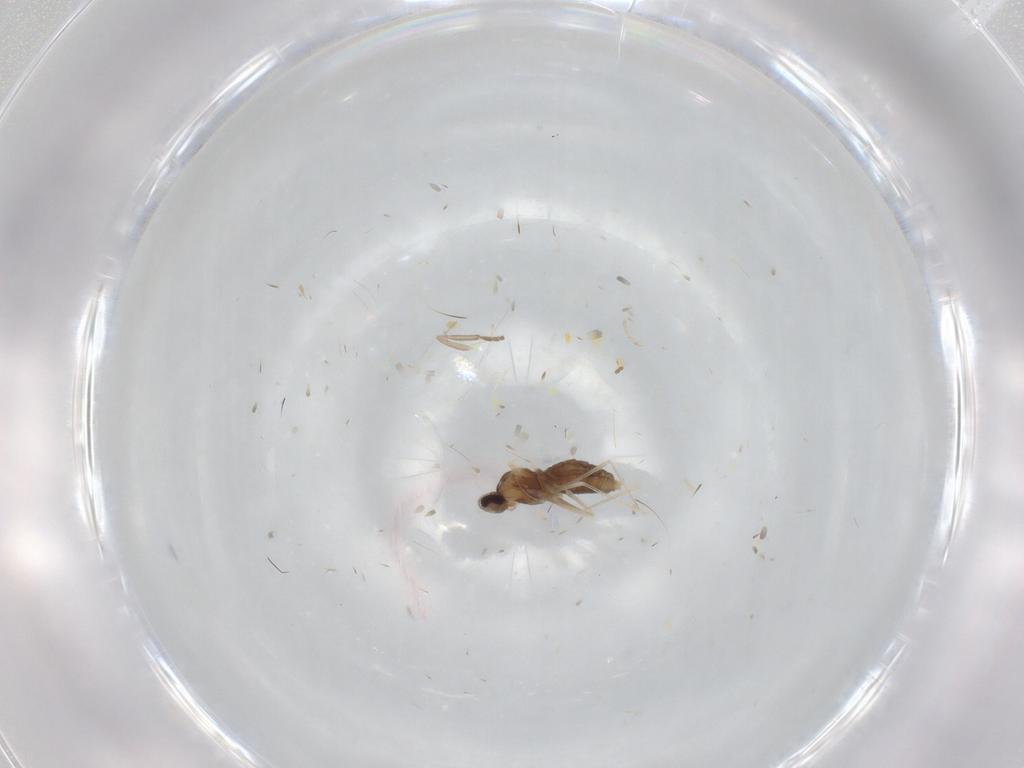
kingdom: Animalia
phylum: Arthropoda
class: Insecta
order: Diptera
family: Cecidomyiidae
